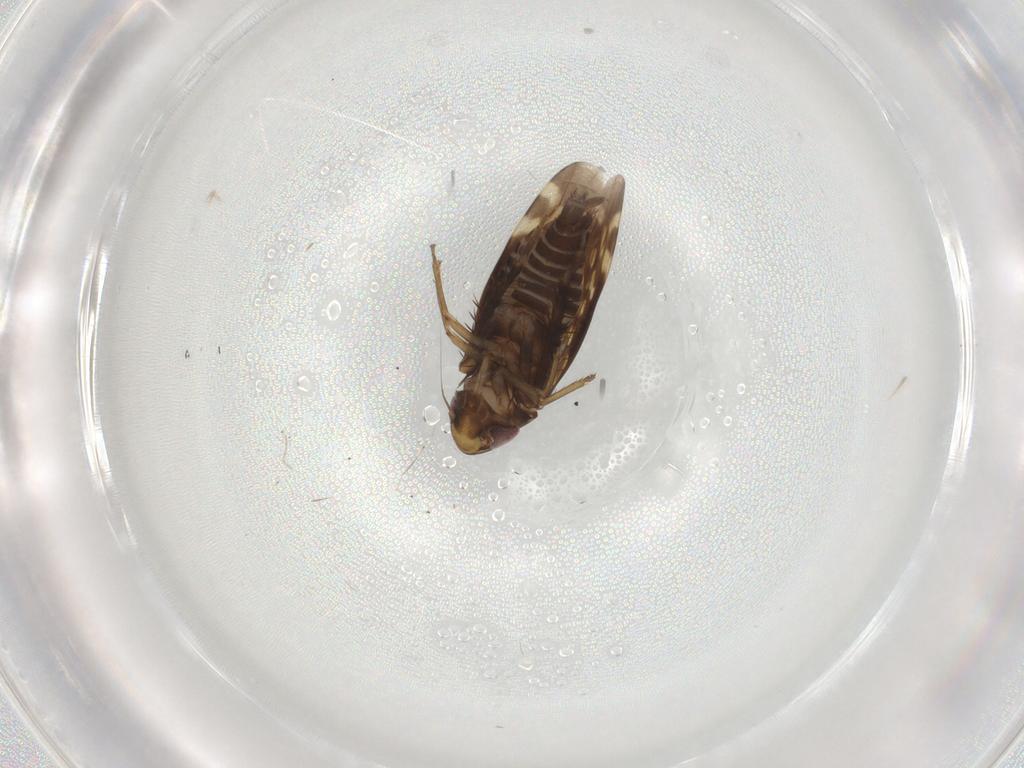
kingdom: Animalia
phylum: Arthropoda
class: Insecta
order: Hemiptera
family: Cicadellidae
